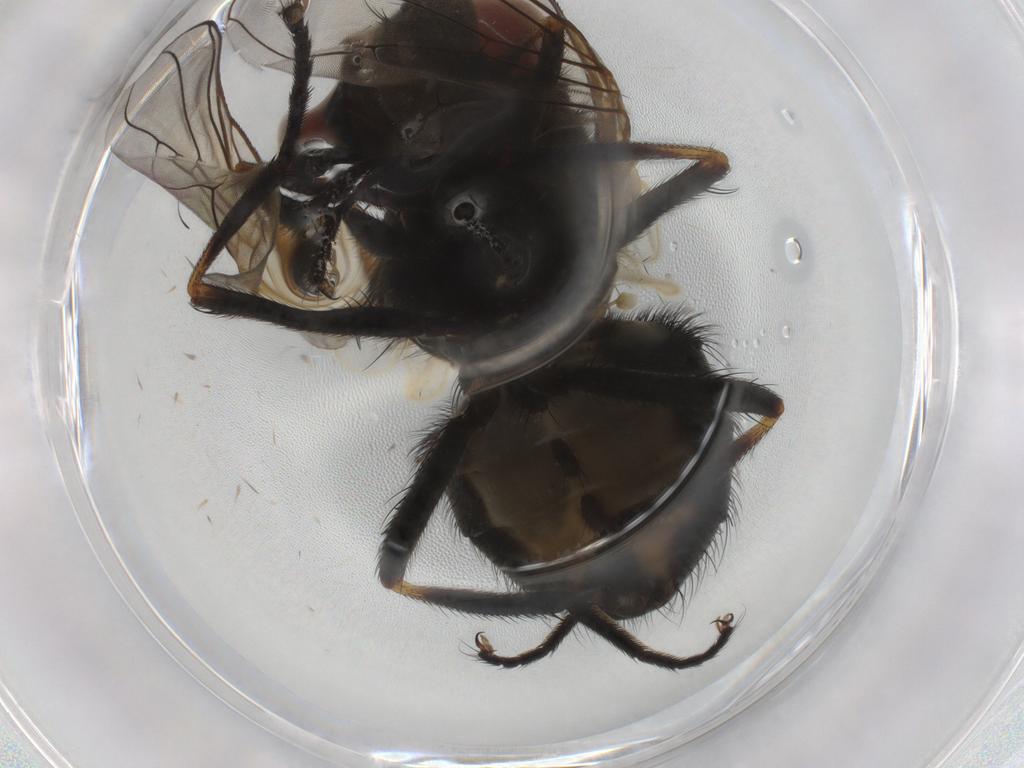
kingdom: Animalia
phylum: Arthropoda
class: Insecta
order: Diptera
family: Muscidae
